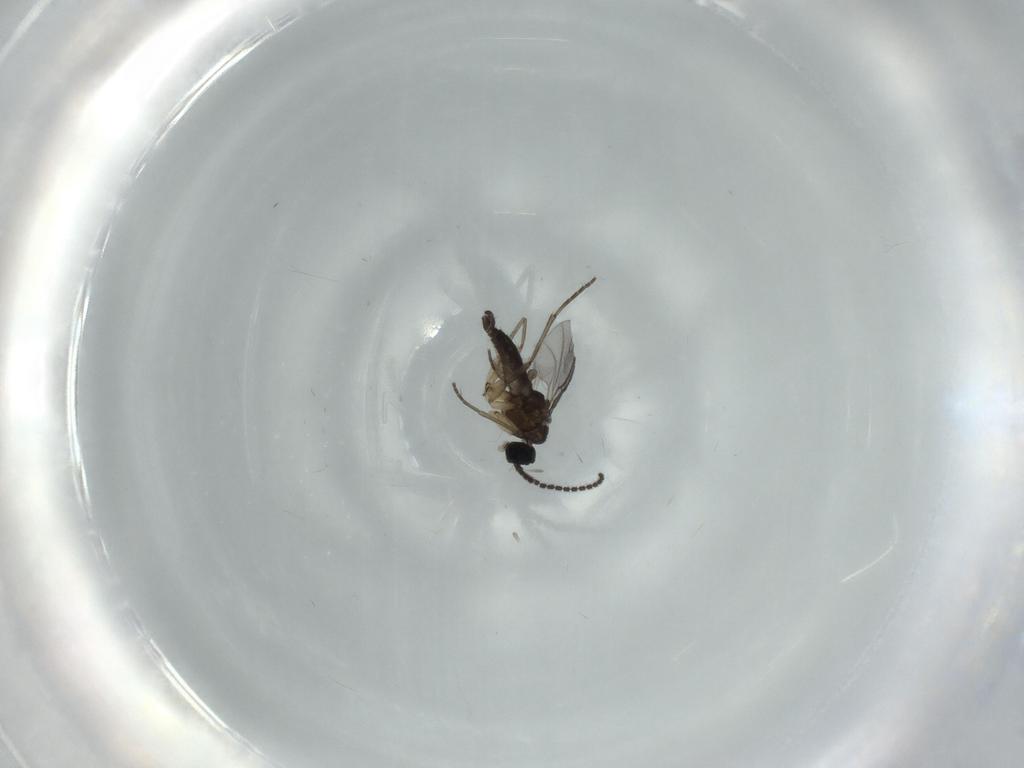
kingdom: Animalia
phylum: Arthropoda
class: Insecta
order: Diptera
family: Sciaridae
